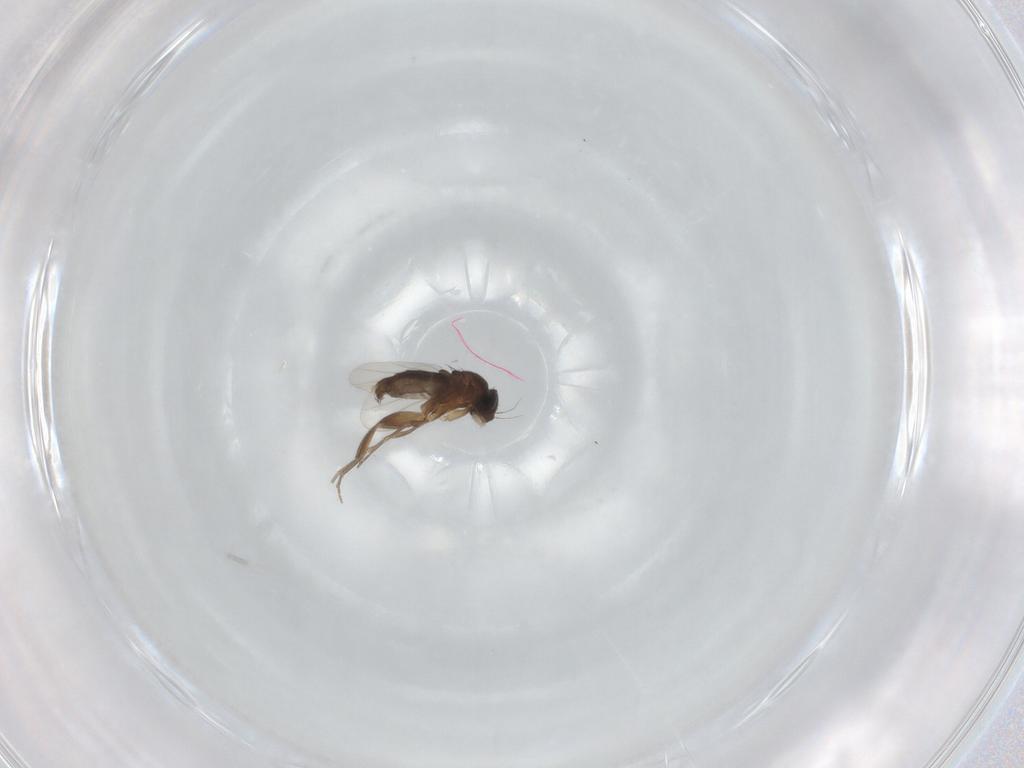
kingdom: Animalia
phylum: Arthropoda
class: Insecta
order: Diptera
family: Phoridae
